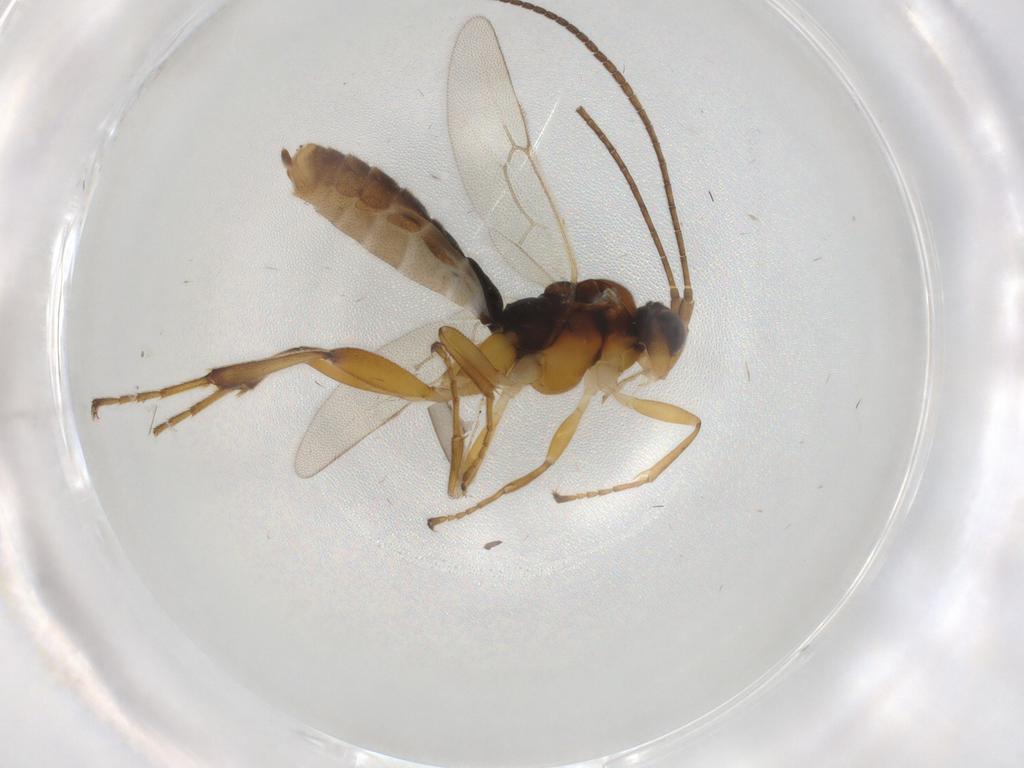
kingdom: Animalia
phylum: Arthropoda
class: Insecta
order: Hymenoptera
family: Ichneumonidae
